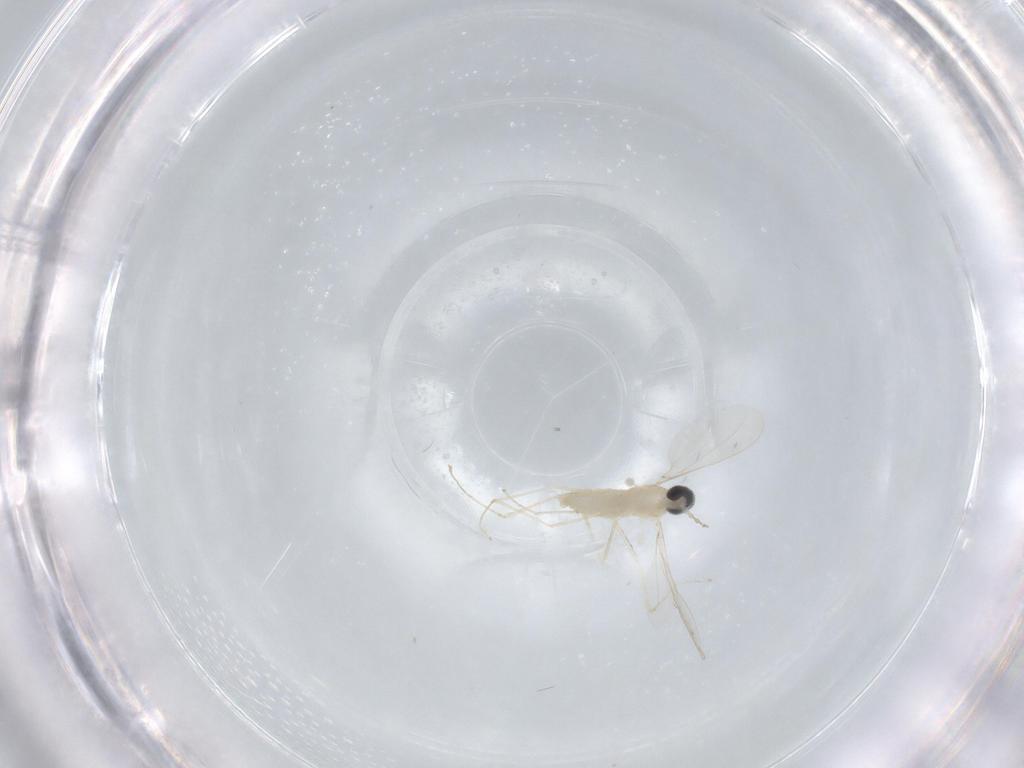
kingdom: Animalia
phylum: Arthropoda
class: Insecta
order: Diptera
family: Cecidomyiidae
